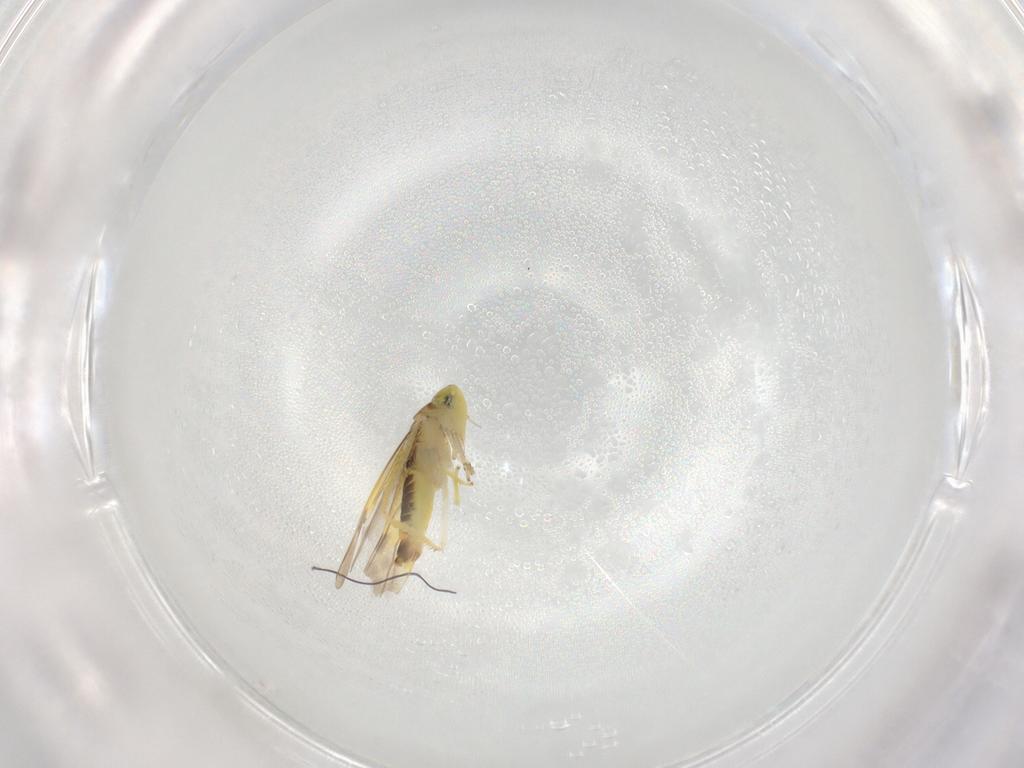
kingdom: Animalia
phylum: Arthropoda
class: Insecta
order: Hemiptera
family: Cicadellidae
